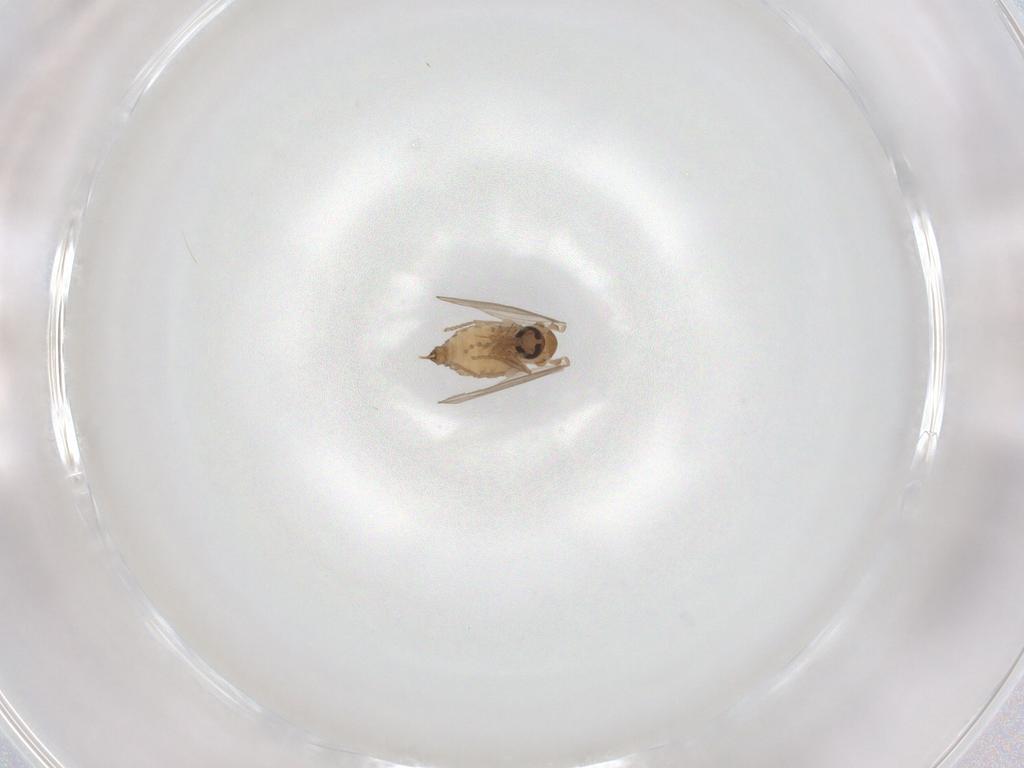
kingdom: Animalia
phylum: Arthropoda
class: Insecta
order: Diptera
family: Psychodidae
